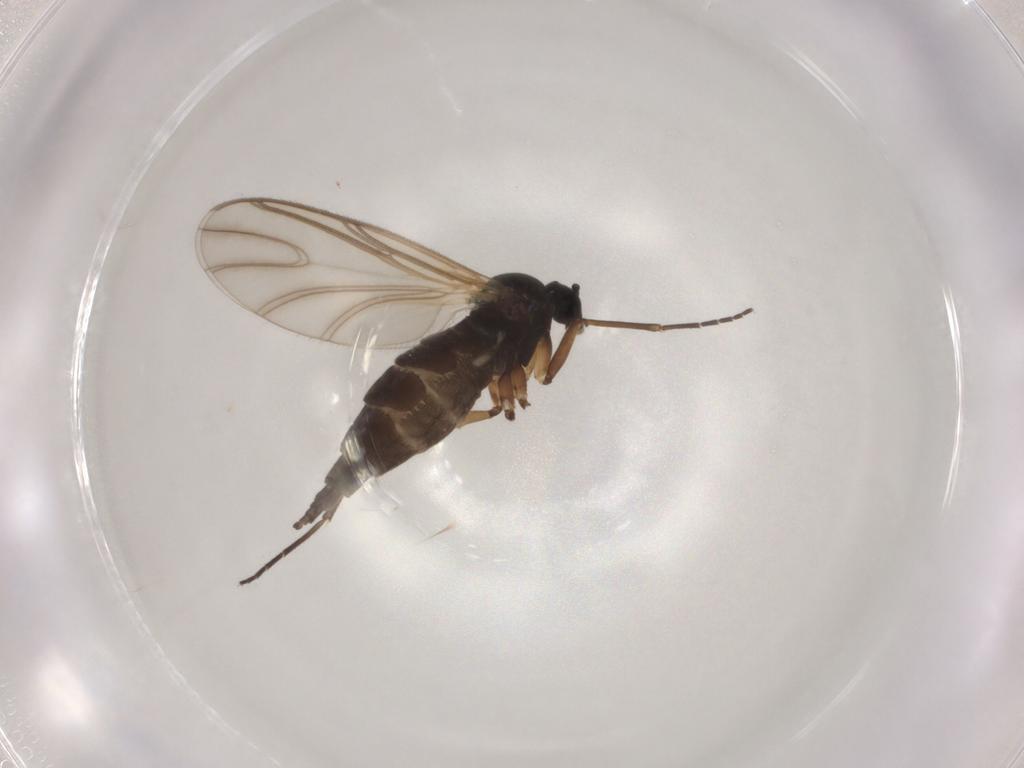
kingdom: Animalia
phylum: Arthropoda
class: Insecta
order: Diptera
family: Sciaridae
